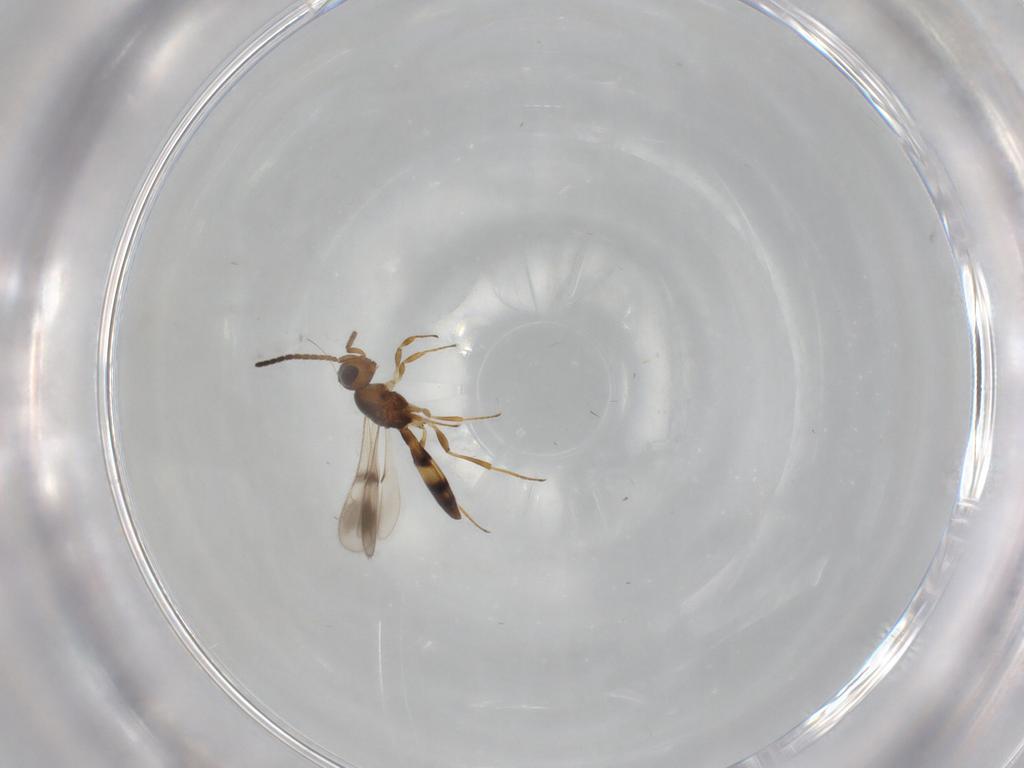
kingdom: Animalia
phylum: Arthropoda
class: Insecta
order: Hymenoptera
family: Scelionidae
